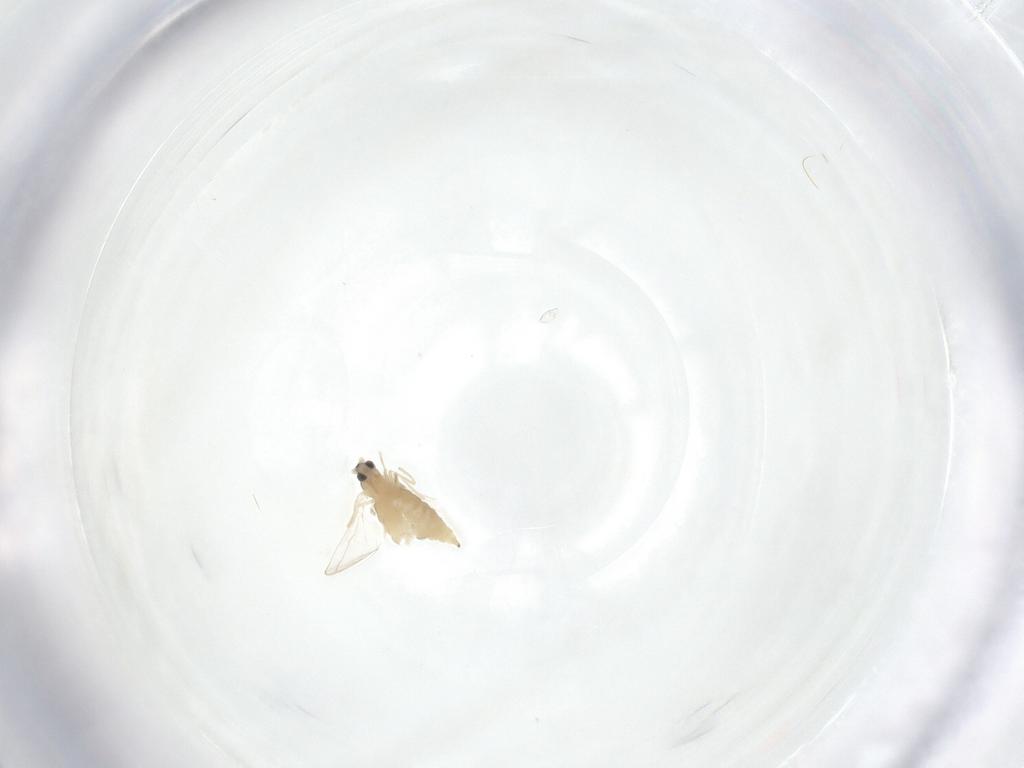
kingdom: Animalia
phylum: Arthropoda
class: Insecta
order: Diptera
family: Cecidomyiidae
